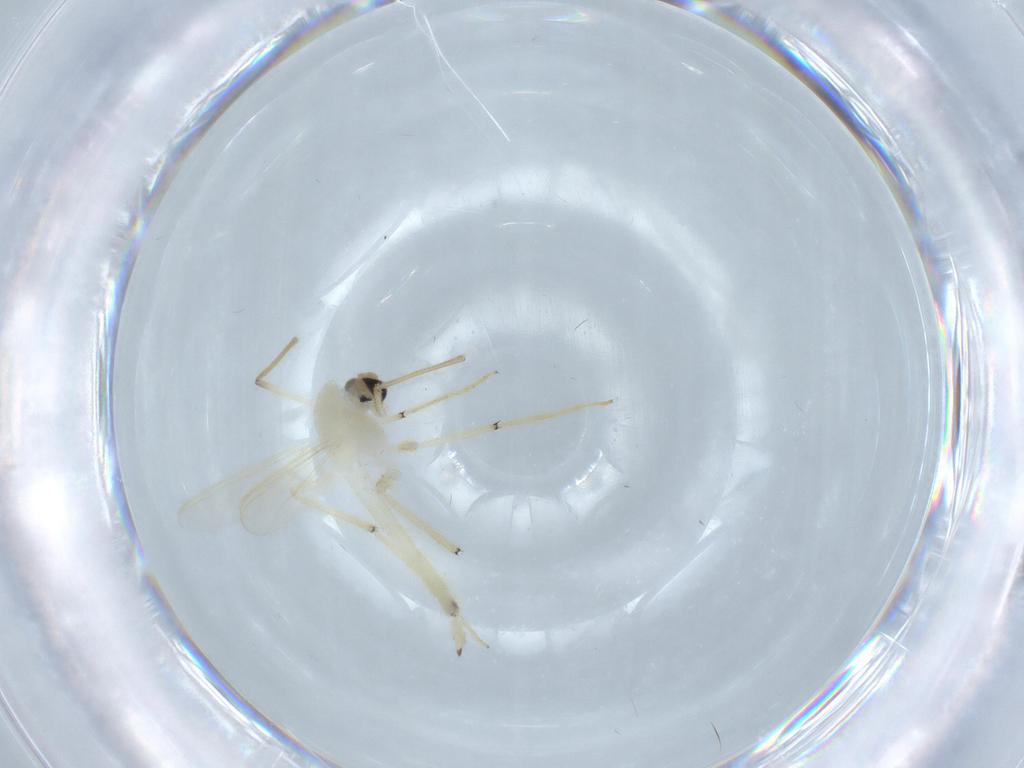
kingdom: Animalia
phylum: Arthropoda
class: Insecta
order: Diptera
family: Chironomidae
